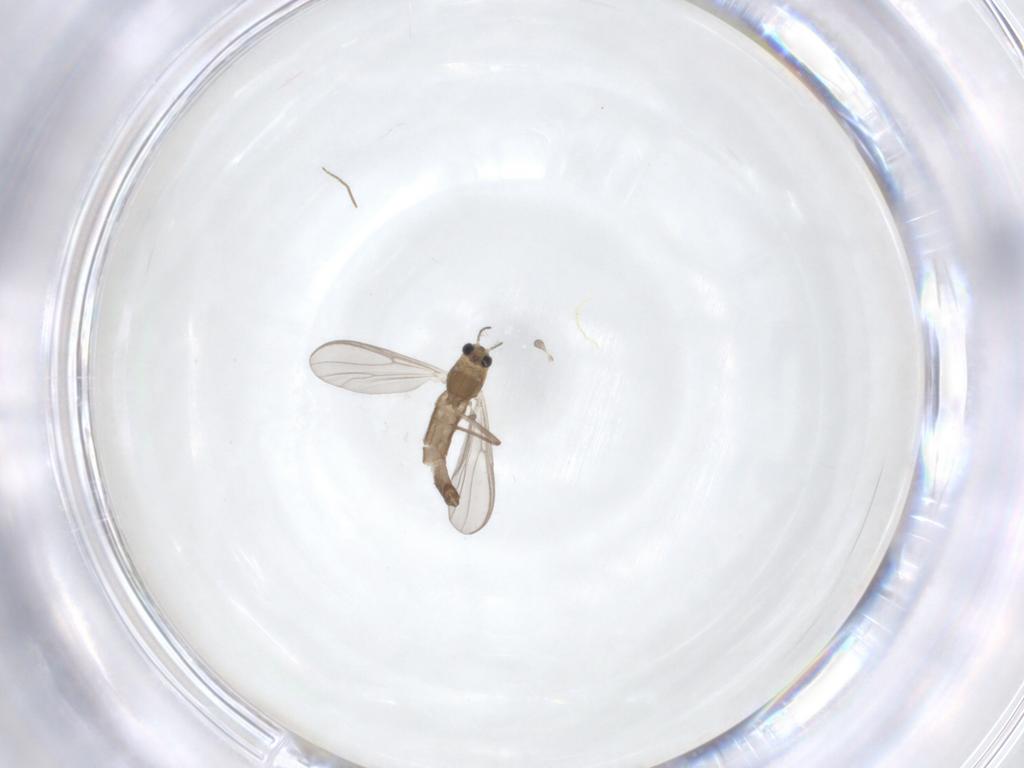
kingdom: Animalia
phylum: Arthropoda
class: Insecta
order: Diptera
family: Chironomidae
